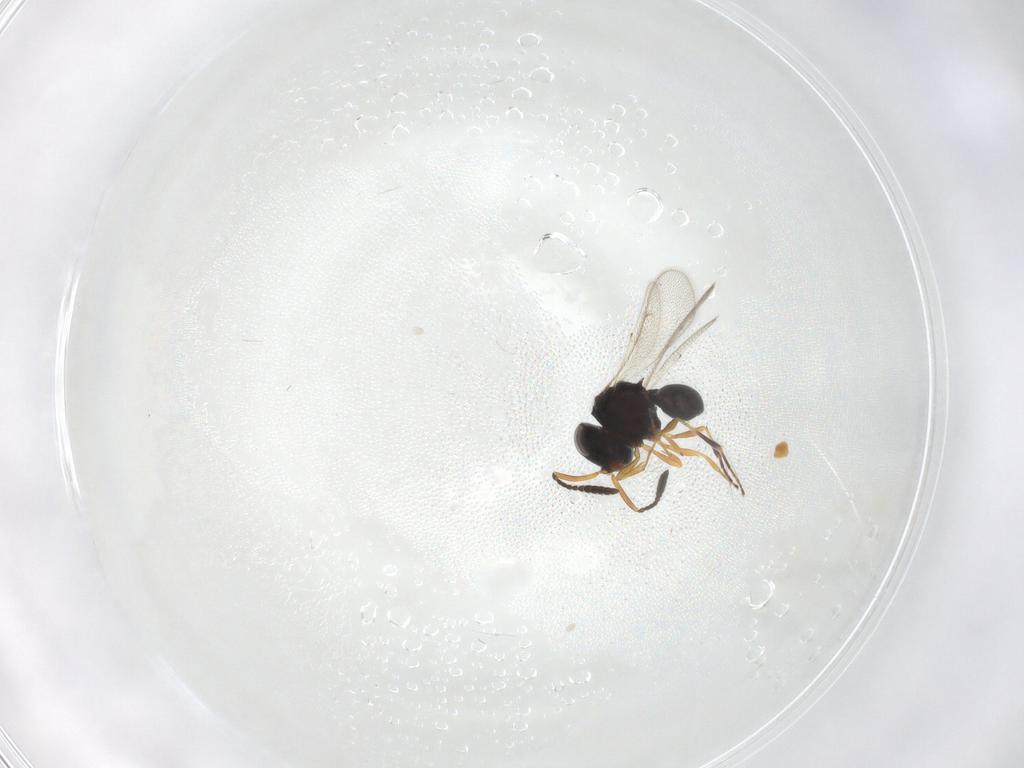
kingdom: Animalia
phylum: Arthropoda
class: Insecta
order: Hymenoptera
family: Scelionidae
